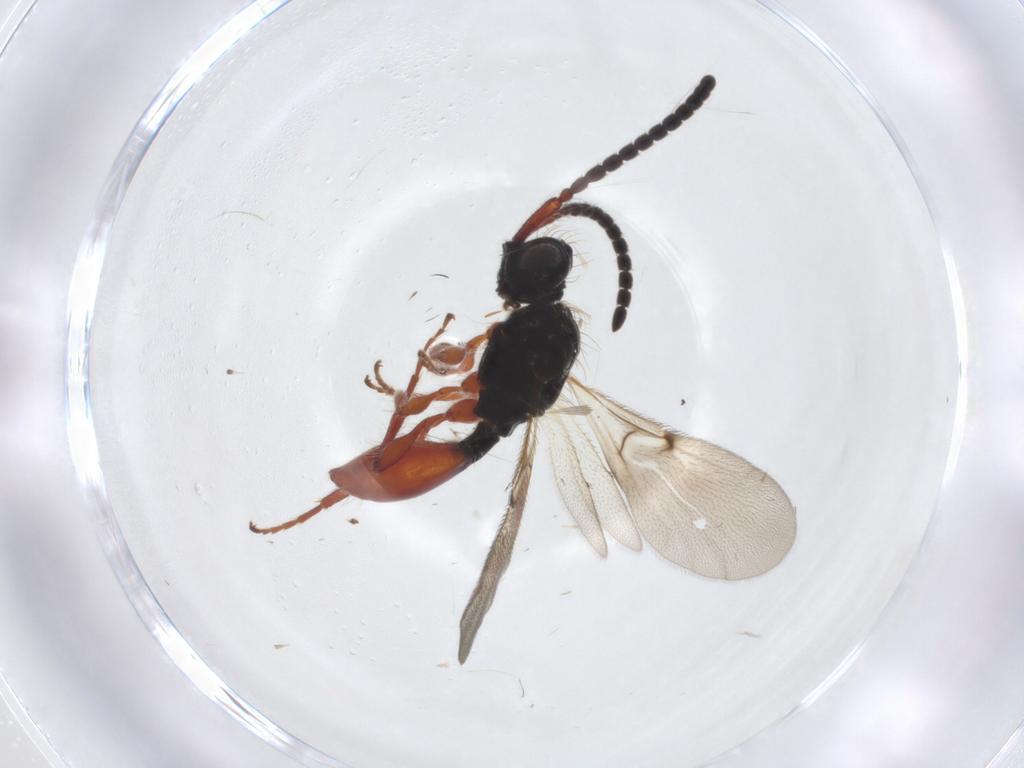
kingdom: Animalia
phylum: Arthropoda
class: Insecta
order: Hymenoptera
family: Diapriidae
